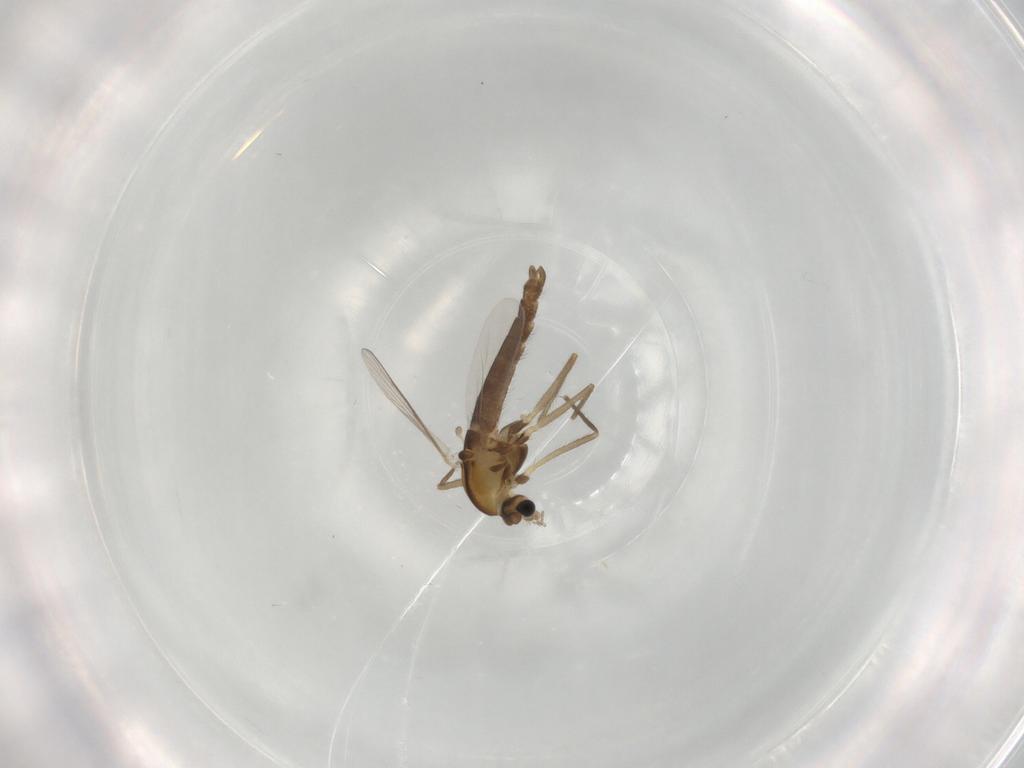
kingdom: Animalia
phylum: Arthropoda
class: Insecta
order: Diptera
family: Chironomidae
